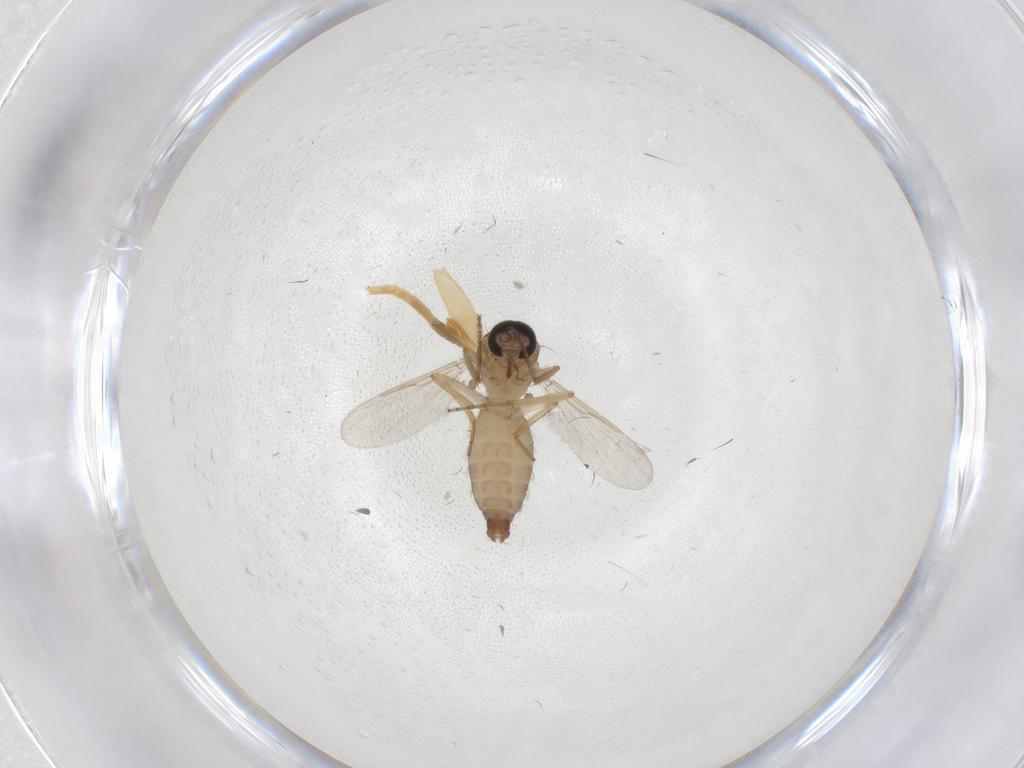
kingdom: Animalia
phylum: Arthropoda
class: Insecta
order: Diptera
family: Ceratopogonidae
